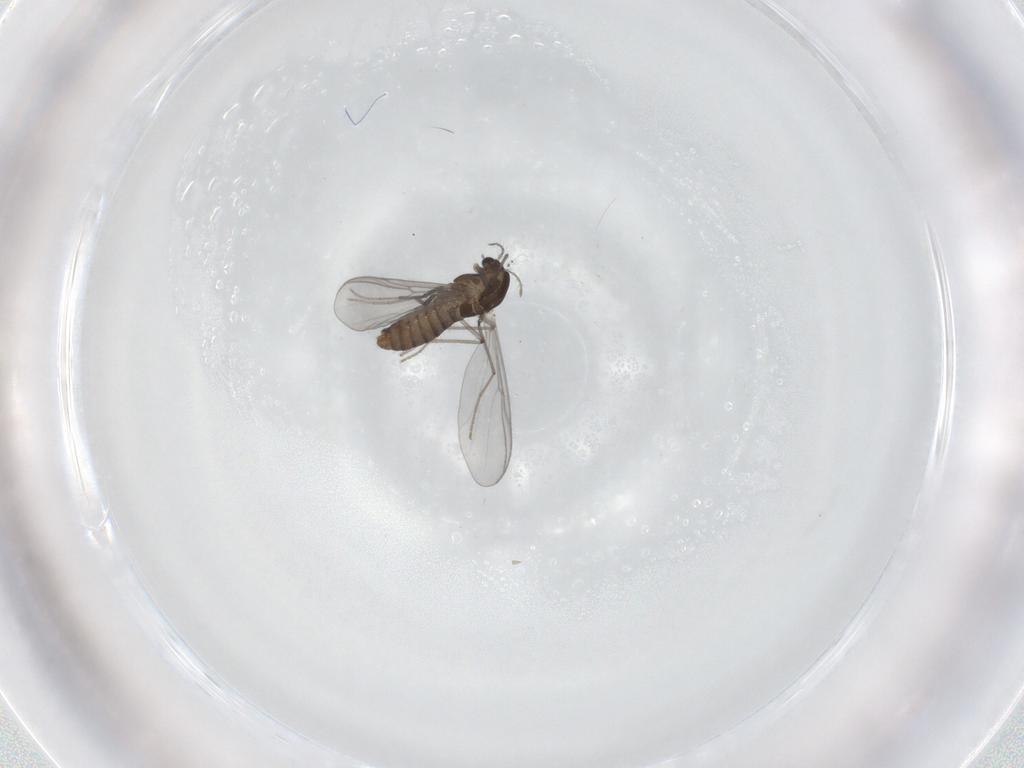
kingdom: Animalia
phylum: Arthropoda
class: Insecta
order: Diptera
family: Chironomidae
